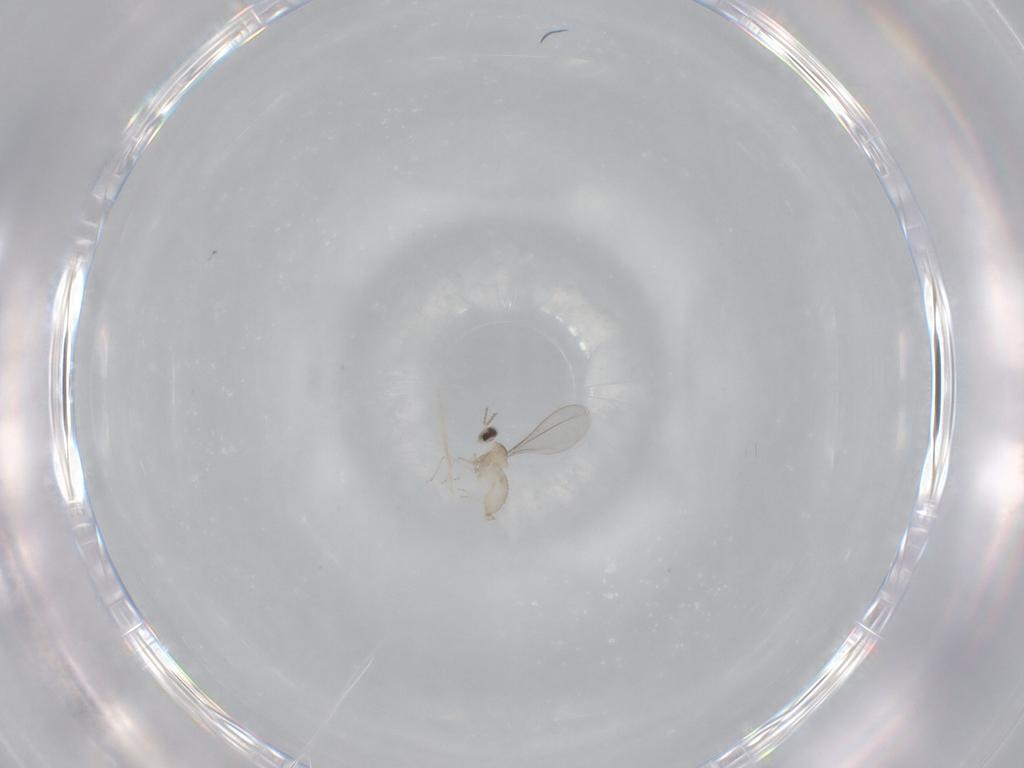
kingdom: Animalia
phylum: Arthropoda
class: Insecta
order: Diptera
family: Cecidomyiidae
